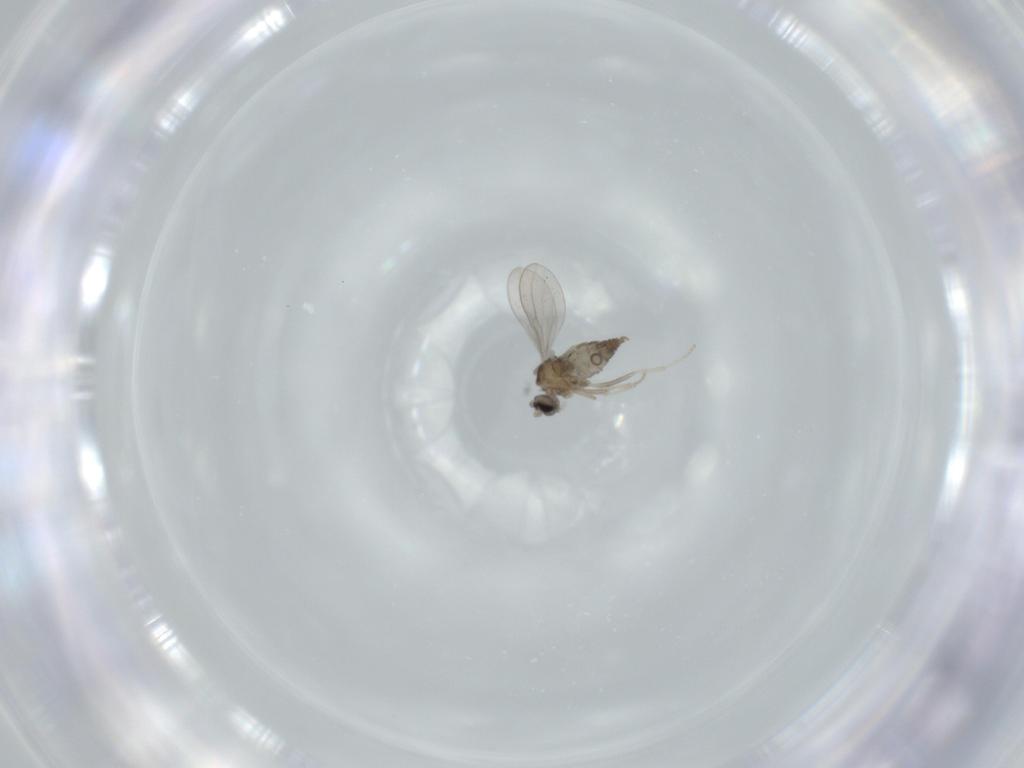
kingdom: Animalia
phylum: Arthropoda
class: Insecta
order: Diptera
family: Cecidomyiidae
